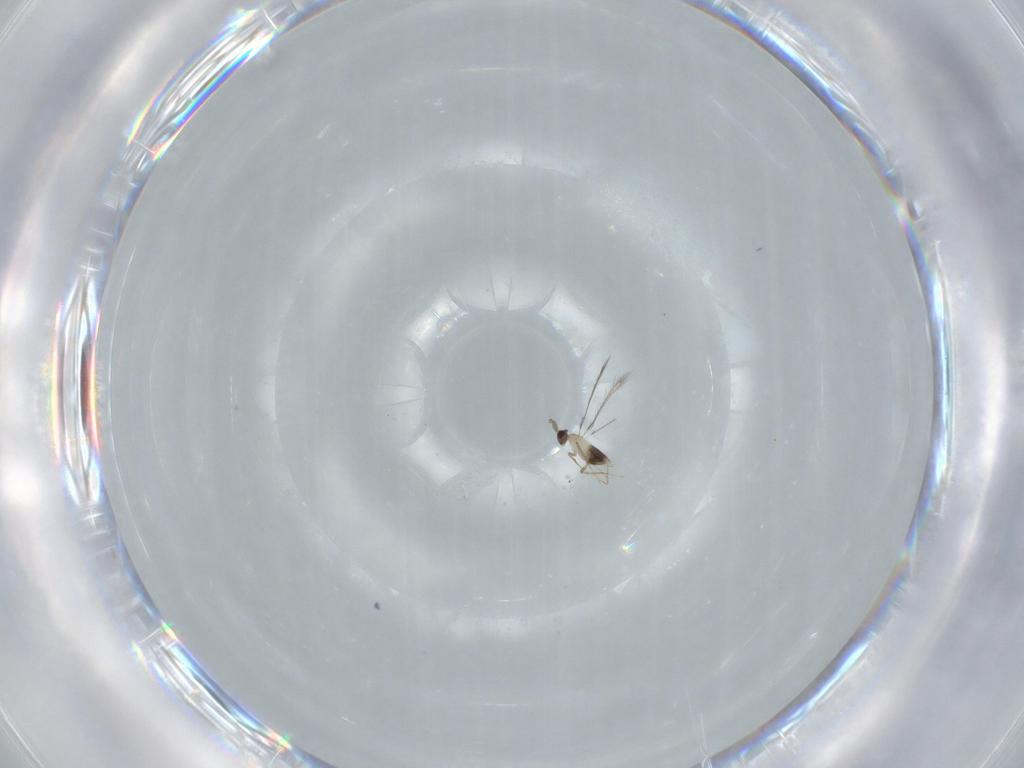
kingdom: Animalia
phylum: Arthropoda
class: Insecta
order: Hymenoptera
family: Mymaridae
